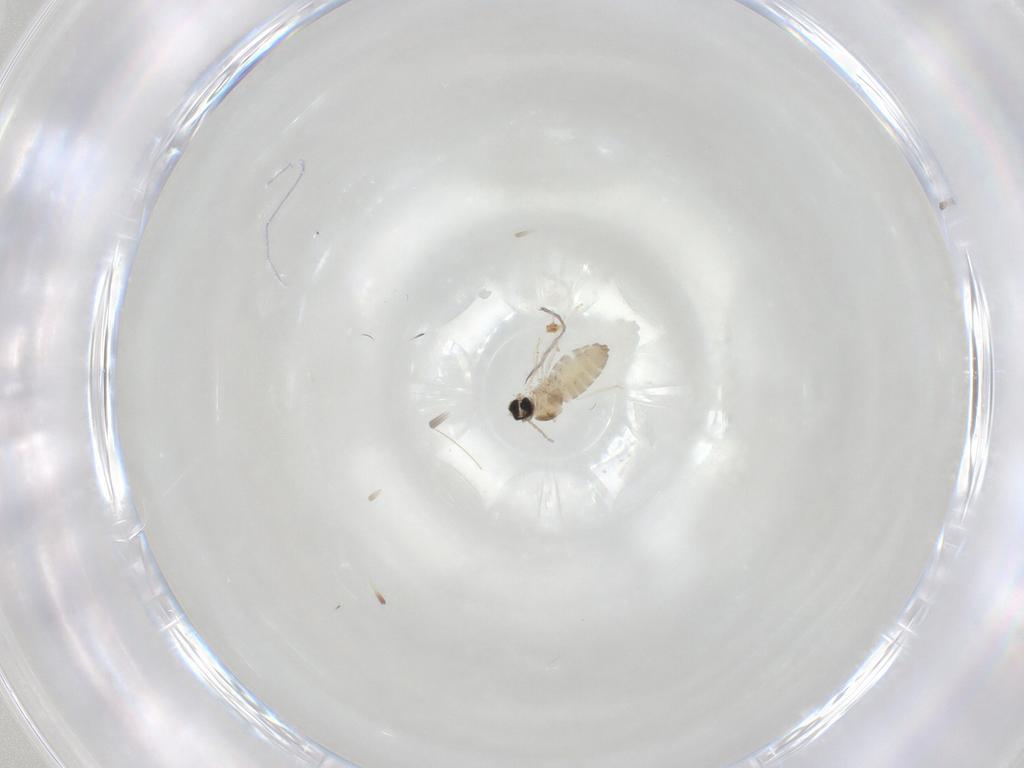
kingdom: Animalia
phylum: Arthropoda
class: Insecta
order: Diptera
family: Cecidomyiidae
